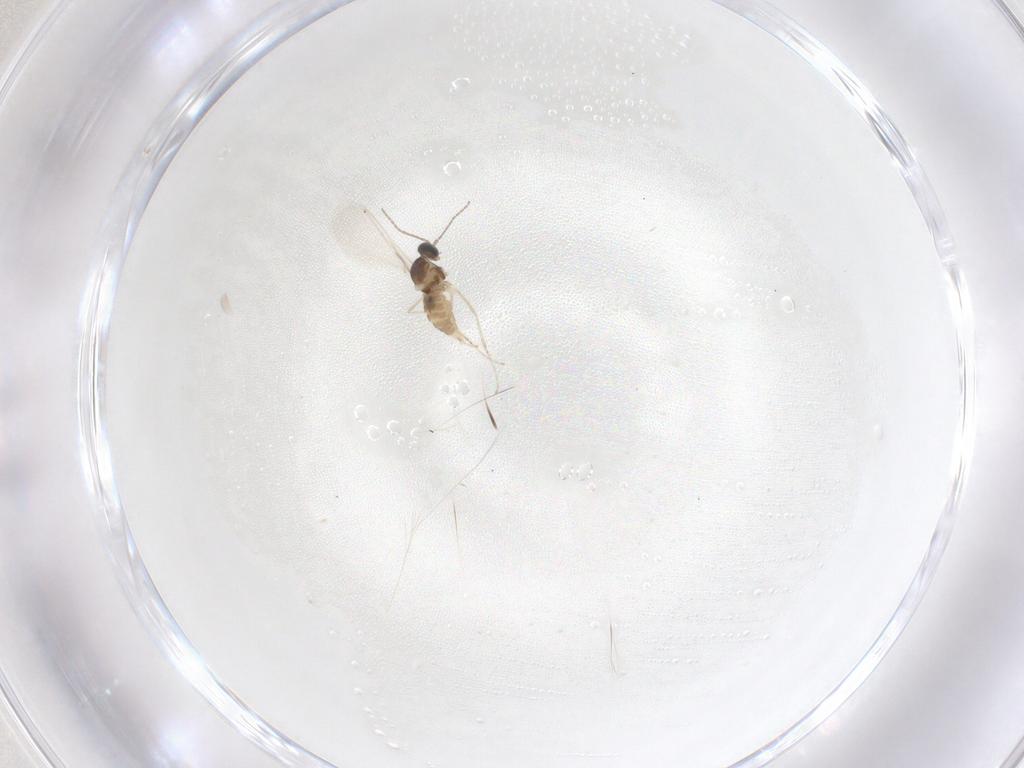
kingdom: Animalia
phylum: Arthropoda
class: Insecta
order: Diptera
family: Cecidomyiidae
